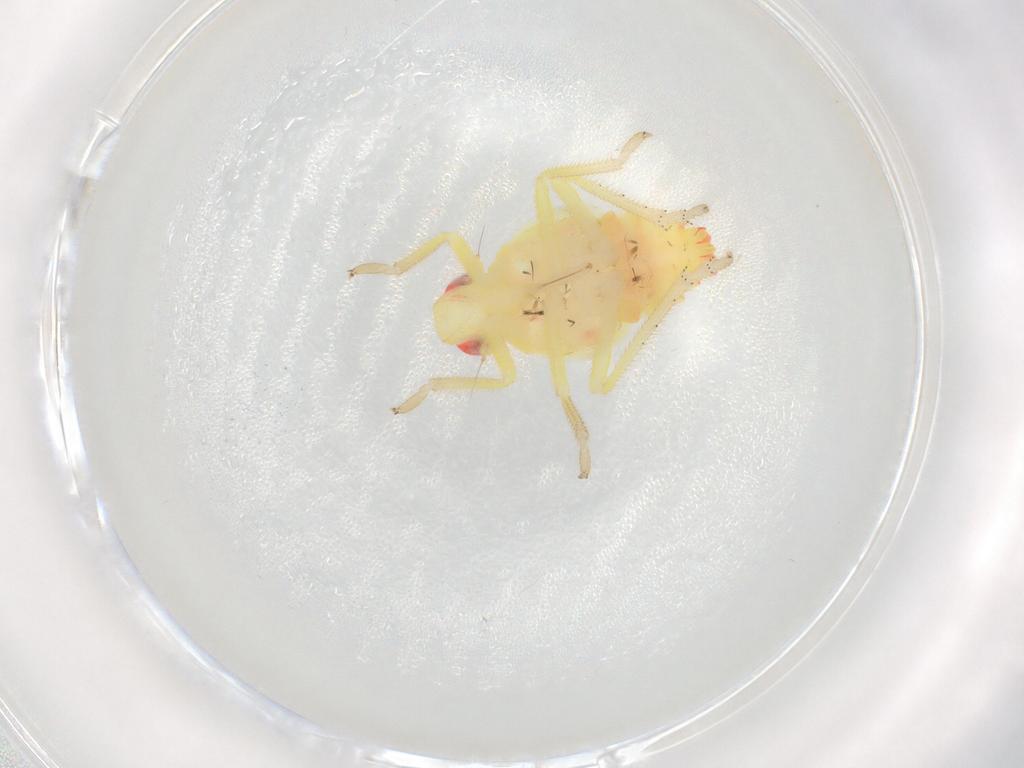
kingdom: Animalia
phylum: Arthropoda
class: Insecta
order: Hemiptera
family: Tropiduchidae
